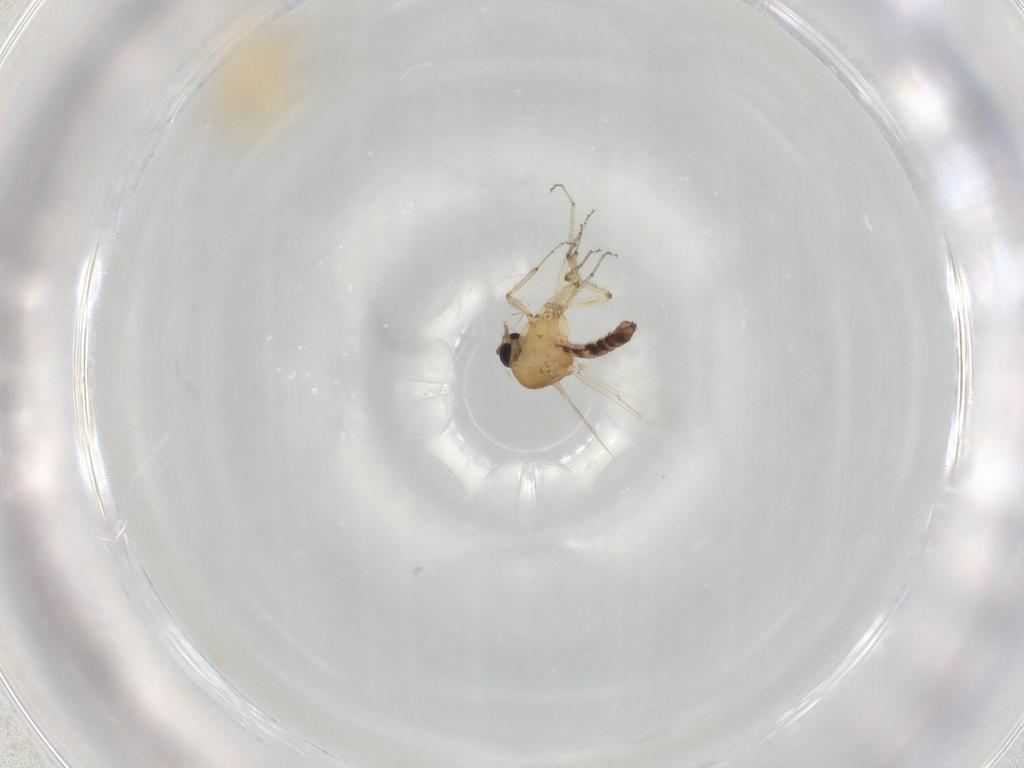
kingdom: Animalia
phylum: Arthropoda
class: Insecta
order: Diptera
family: Ceratopogonidae
